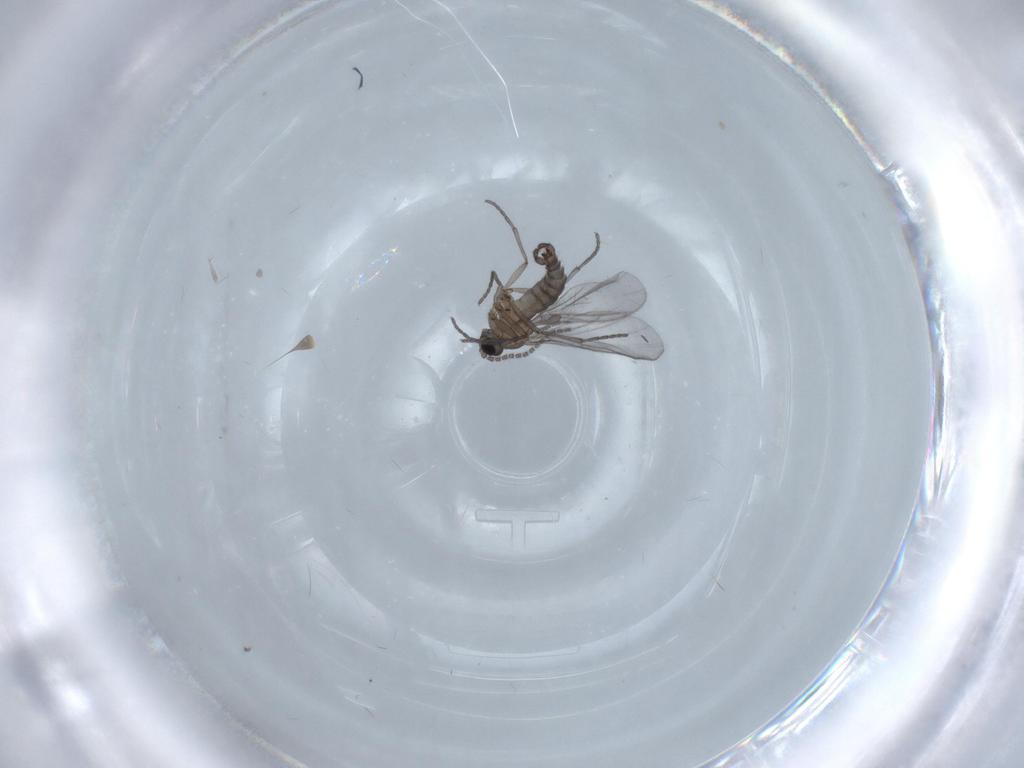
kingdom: Animalia
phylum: Arthropoda
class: Insecta
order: Diptera
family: Sciaridae
